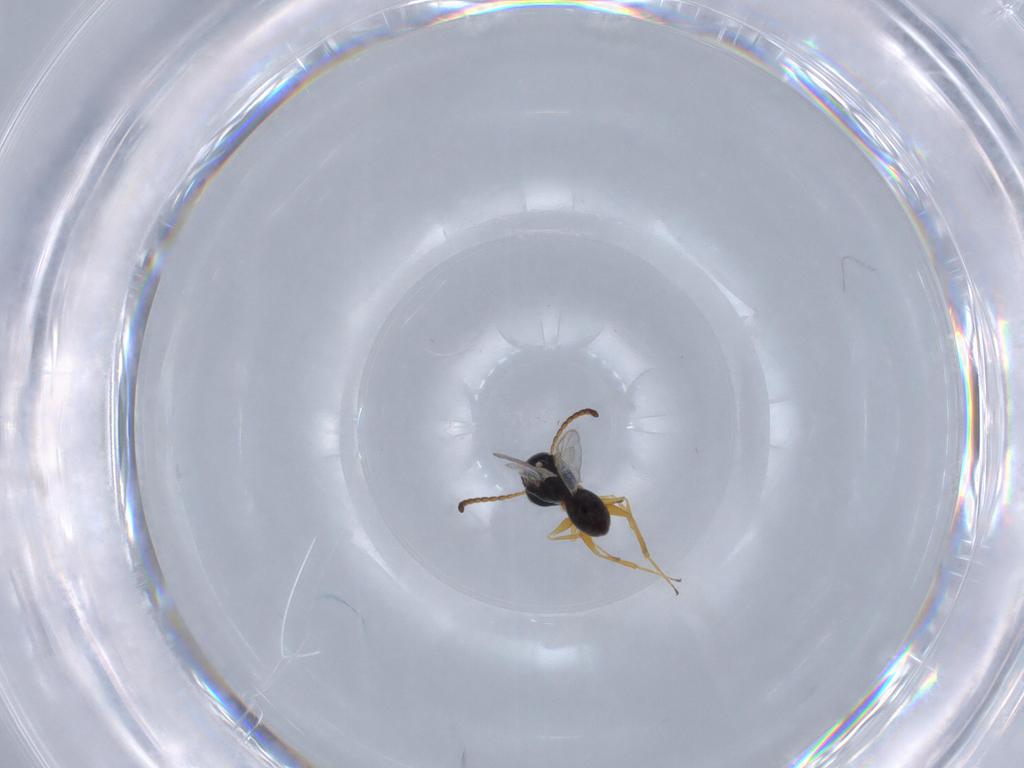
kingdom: Animalia
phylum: Arthropoda
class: Insecta
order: Hymenoptera
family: Figitidae
